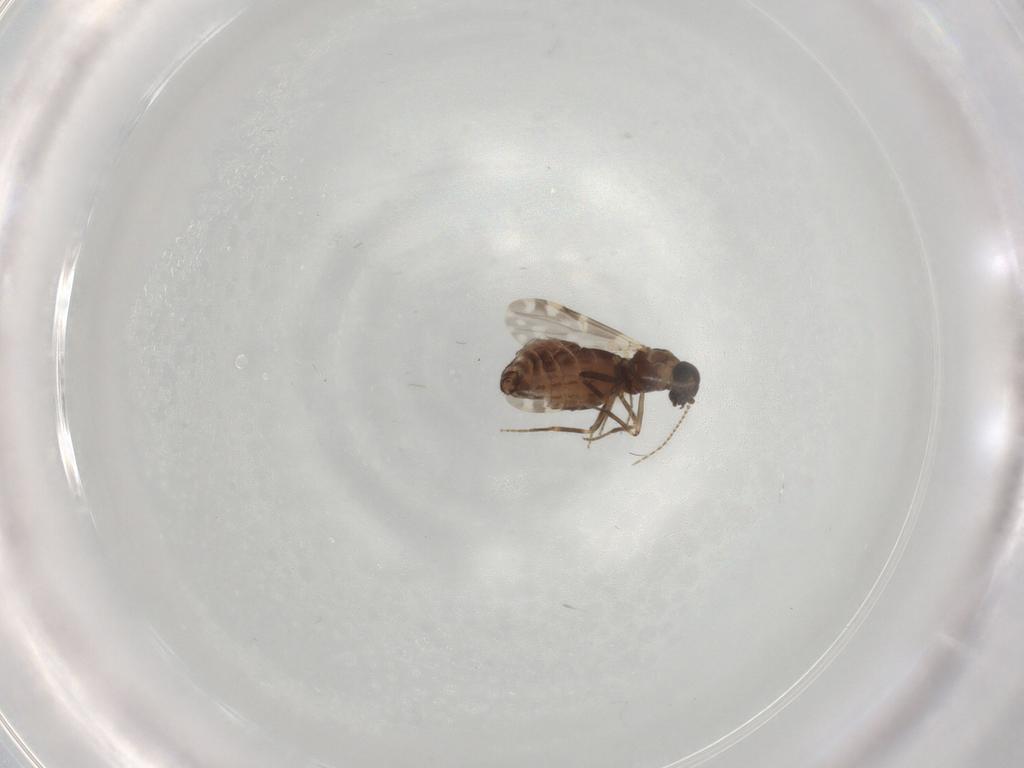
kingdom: Animalia
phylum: Arthropoda
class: Insecta
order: Diptera
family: Ceratopogonidae
